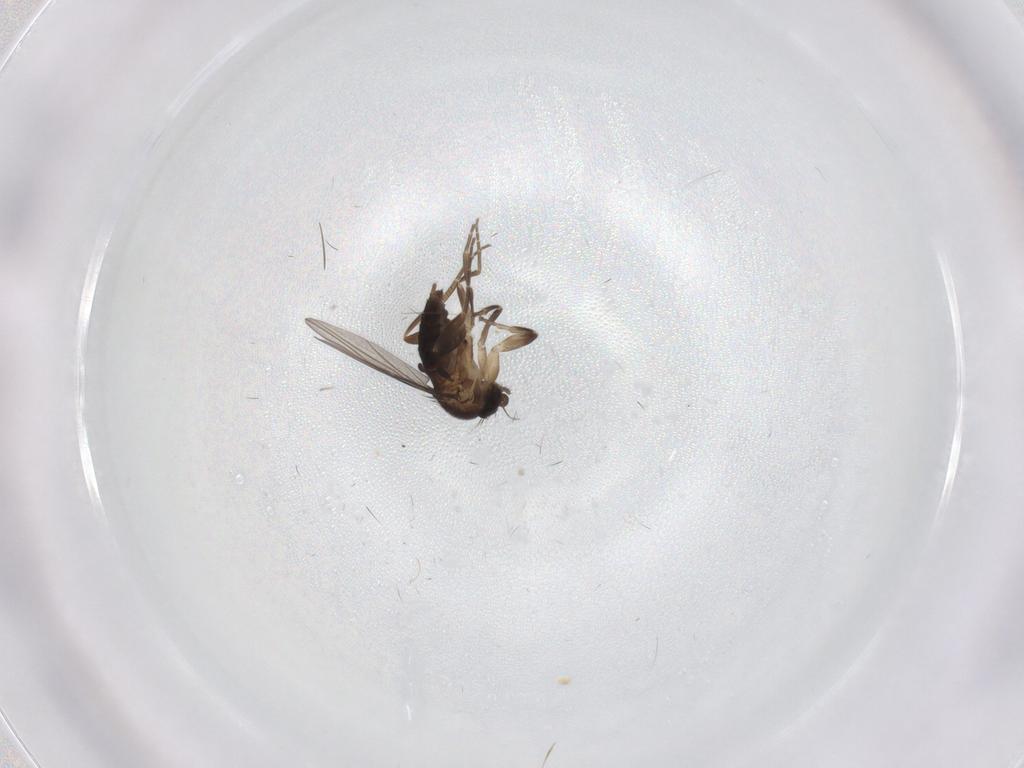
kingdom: Animalia
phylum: Arthropoda
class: Insecta
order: Diptera
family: Phoridae
